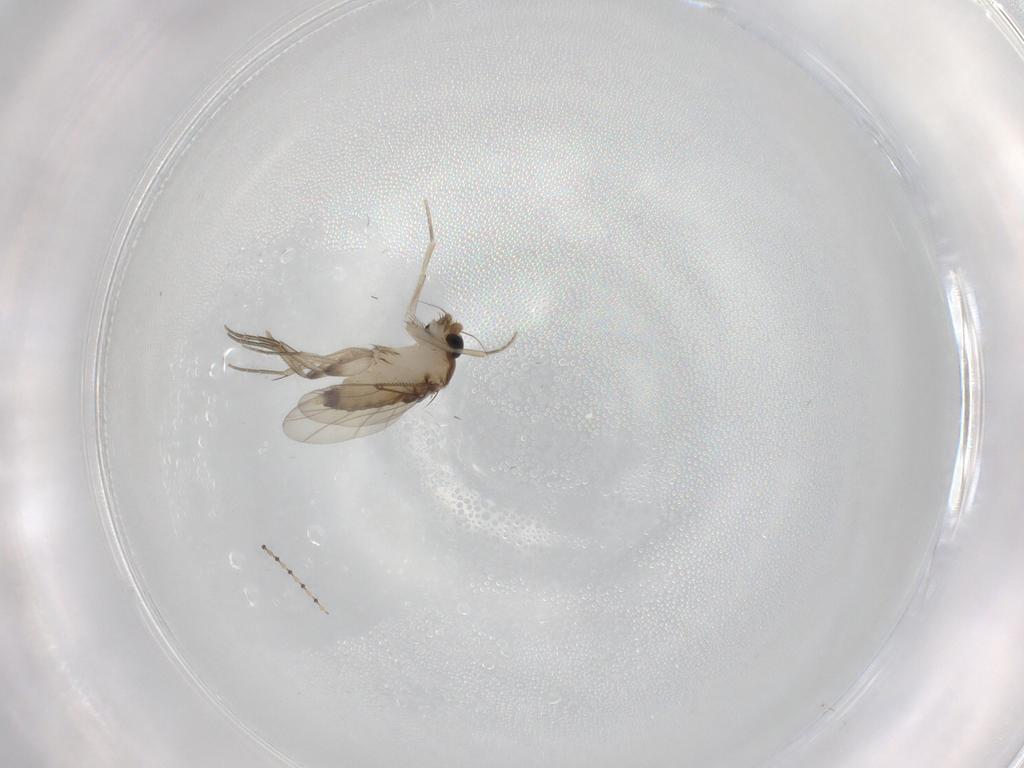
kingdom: Animalia
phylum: Arthropoda
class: Insecta
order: Diptera
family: Phoridae
